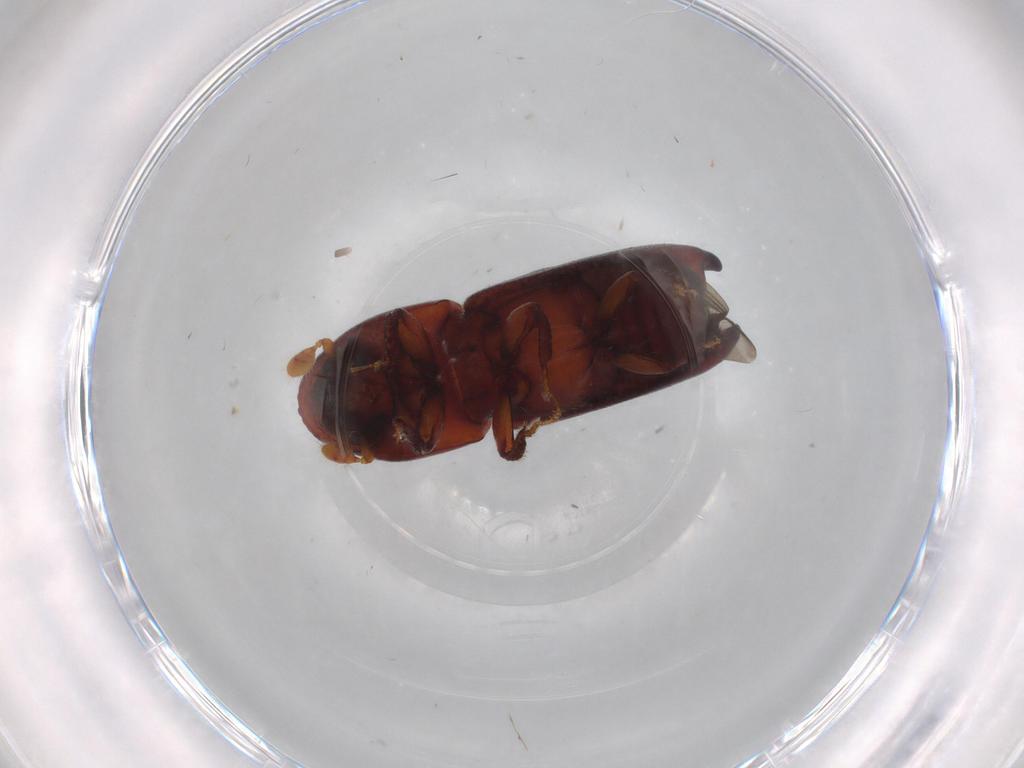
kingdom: Animalia
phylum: Arthropoda
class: Insecta
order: Coleoptera
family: Curculionidae
